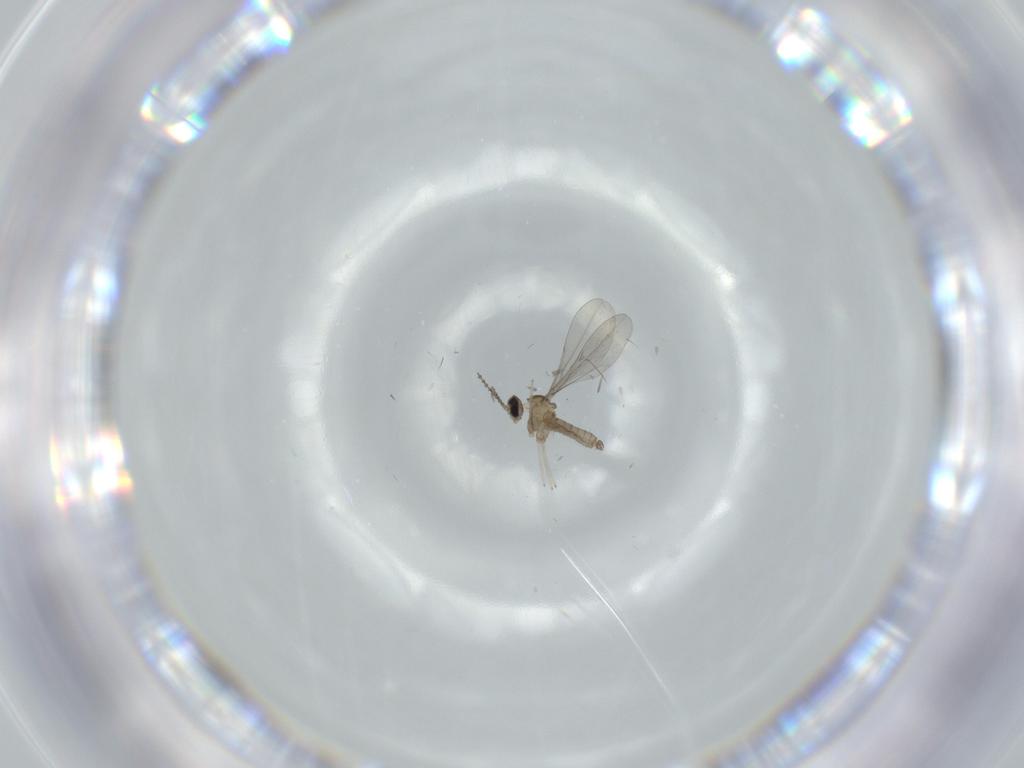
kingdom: Animalia
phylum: Arthropoda
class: Insecta
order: Diptera
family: Cecidomyiidae
